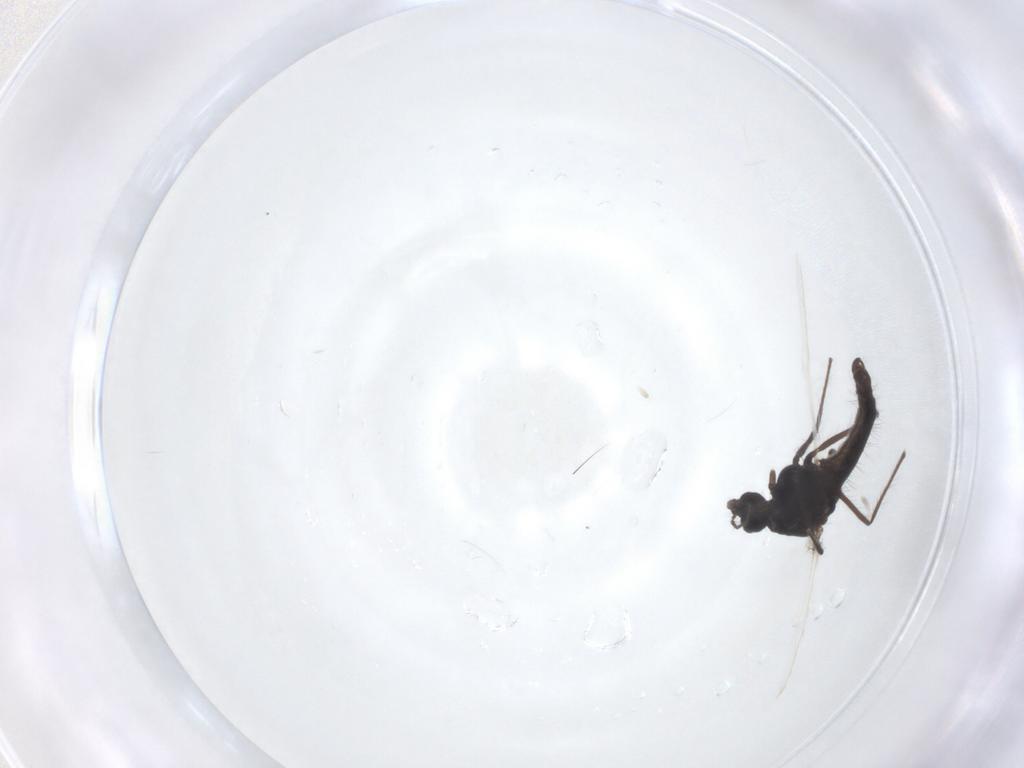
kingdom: Animalia
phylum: Arthropoda
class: Insecta
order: Diptera
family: Chironomidae
